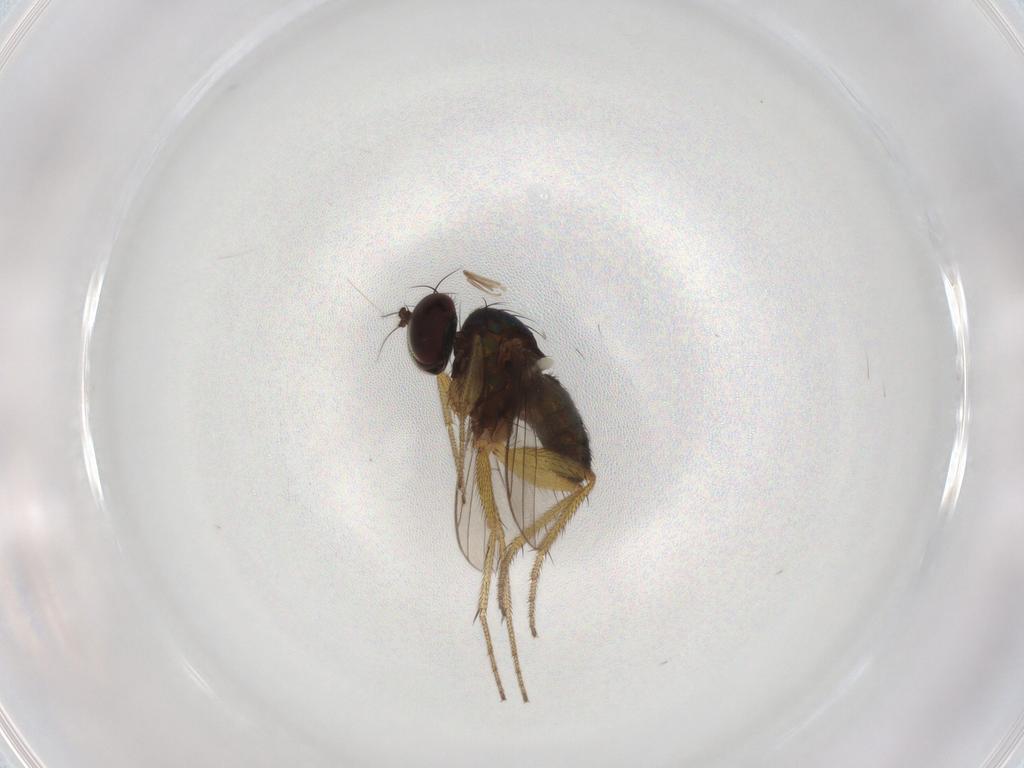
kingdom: Animalia
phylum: Arthropoda
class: Insecta
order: Diptera
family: Dolichopodidae
